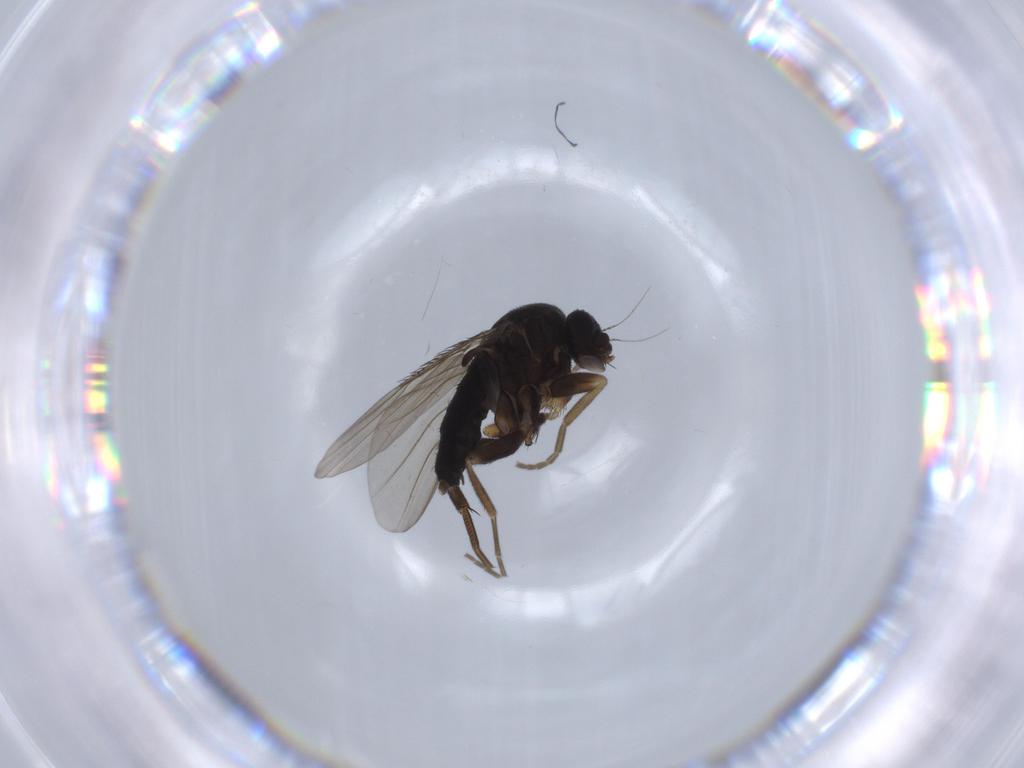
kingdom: Animalia
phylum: Arthropoda
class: Insecta
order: Diptera
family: Phoridae
